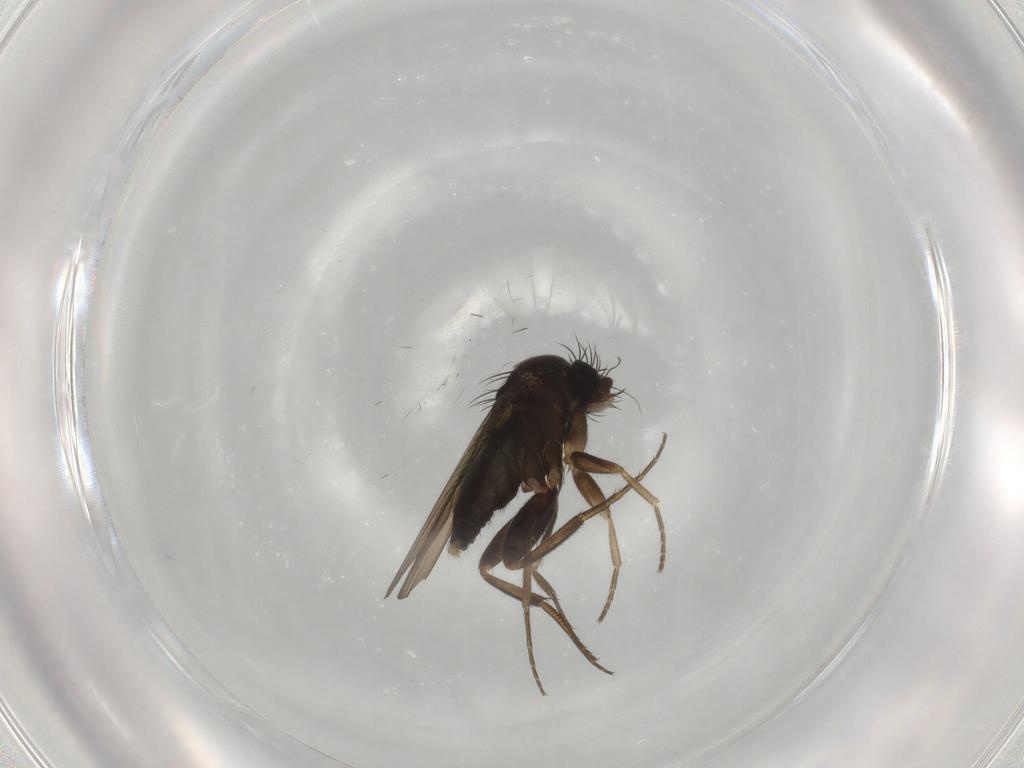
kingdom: Animalia
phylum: Arthropoda
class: Insecta
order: Diptera
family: Phoridae
